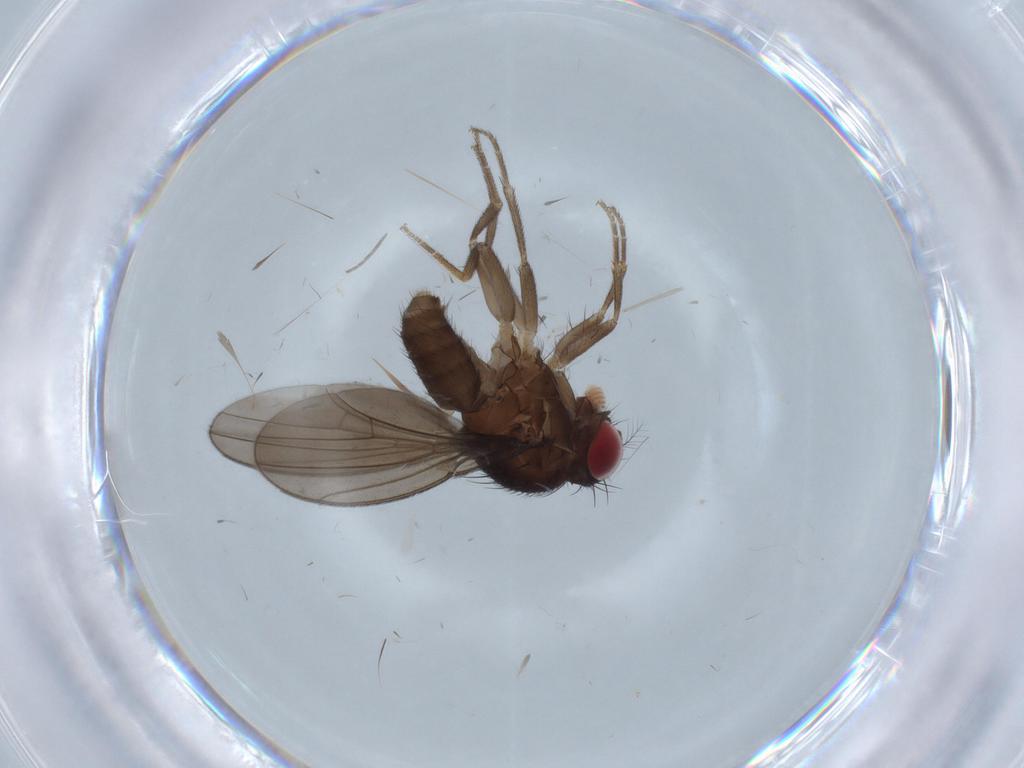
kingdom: Animalia
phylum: Arthropoda
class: Insecta
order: Diptera
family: Drosophilidae
